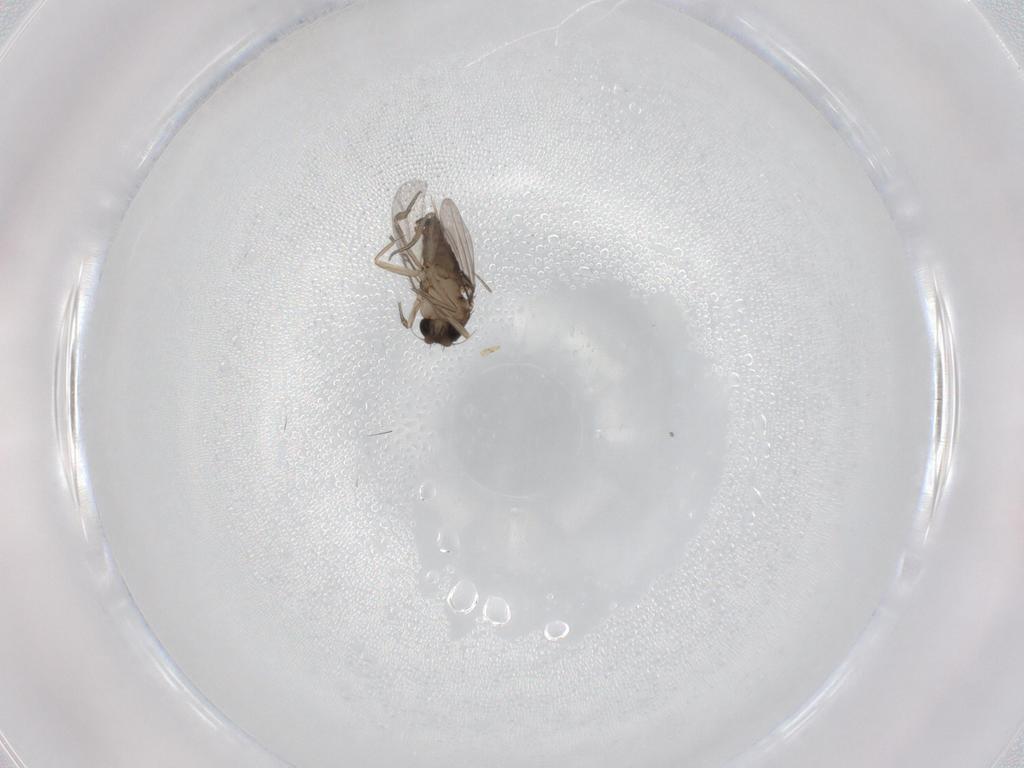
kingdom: Animalia
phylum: Arthropoda
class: Insecta
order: Diptera
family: Phoridae
